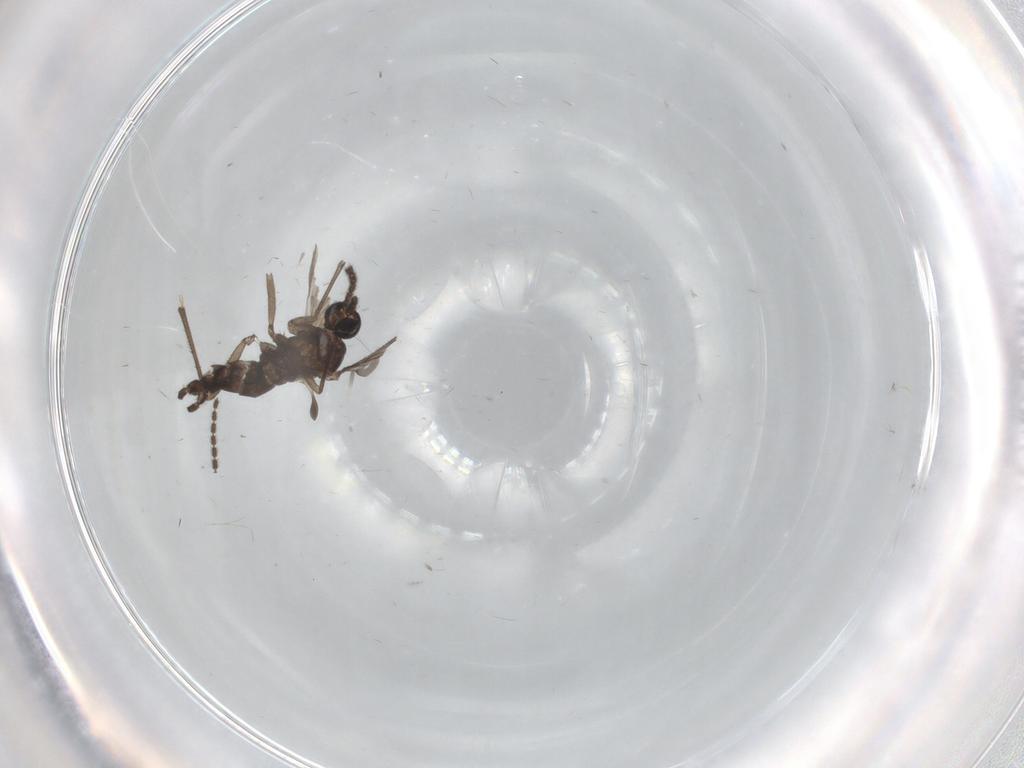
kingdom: Animalia
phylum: Arthropoda
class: Insecta
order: Diptera
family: Sciaridae
